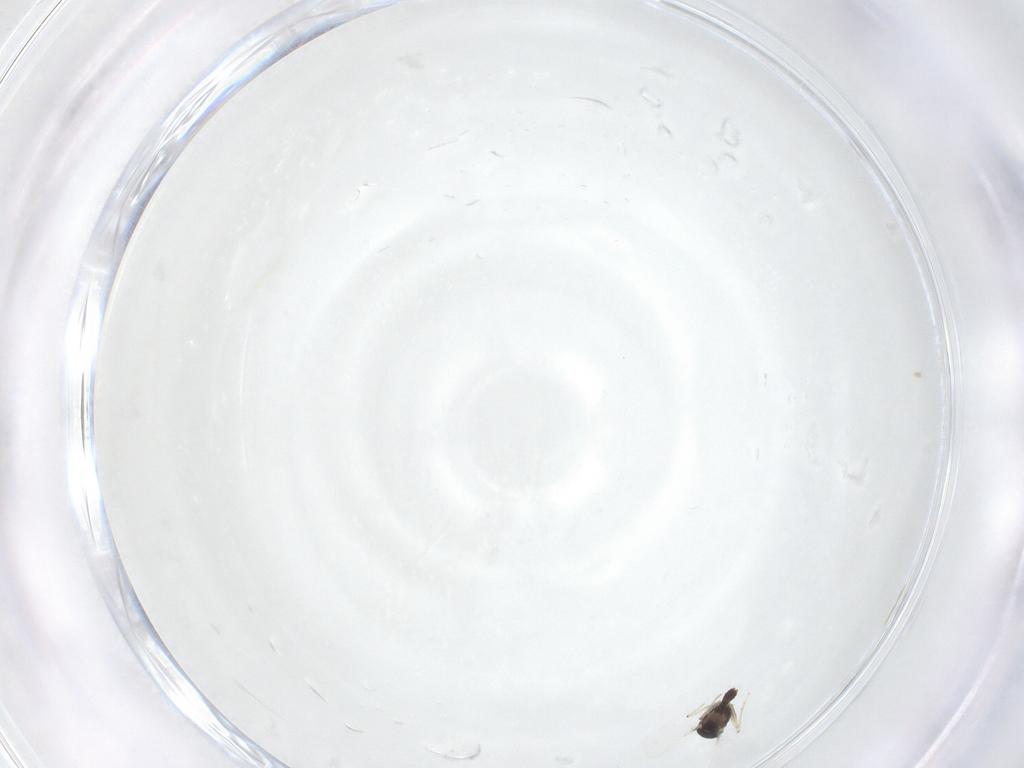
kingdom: Animalia
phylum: Arthropoda
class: Insecta
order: Diptera
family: Chironomidae
